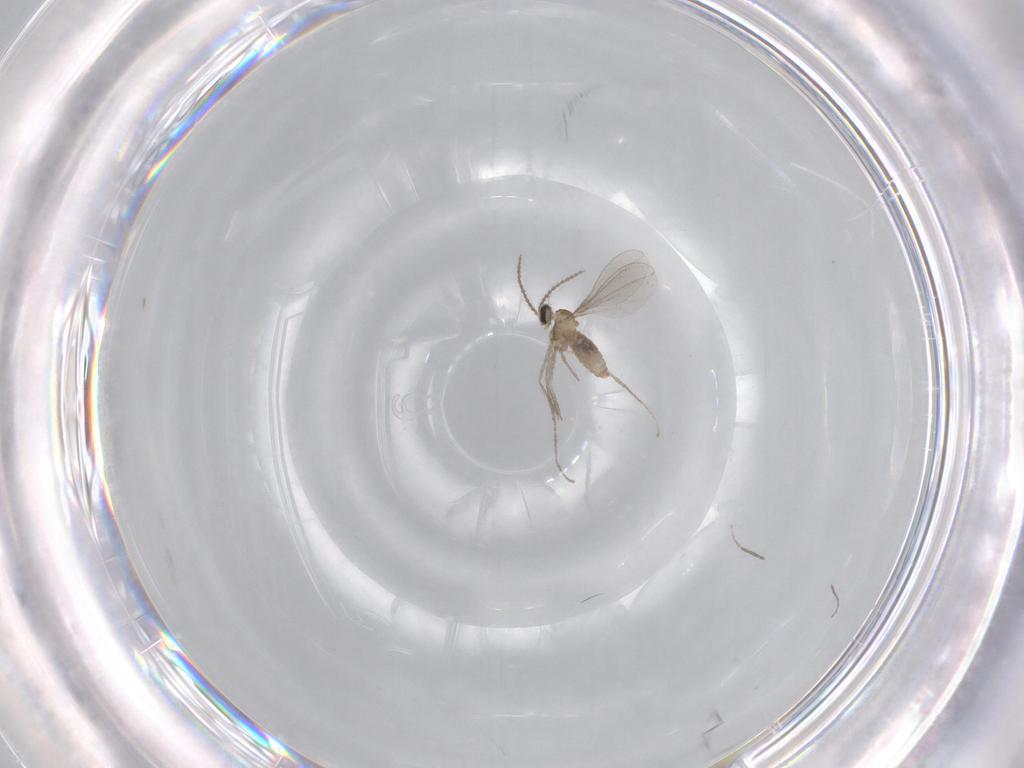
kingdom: Animalia
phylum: Arthropoda
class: Insecta
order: Diptera
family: Cecidomyiidae
